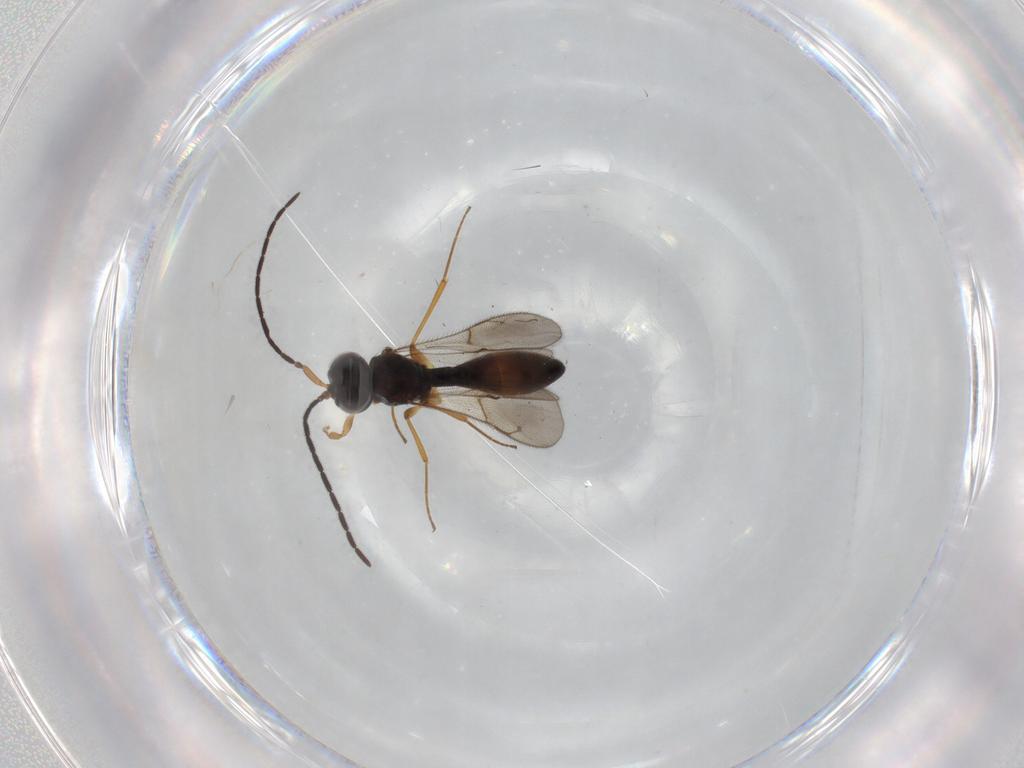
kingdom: Animalia
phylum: Arthropoda
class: Insecta
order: Hymenoptera
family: Scelionidae
